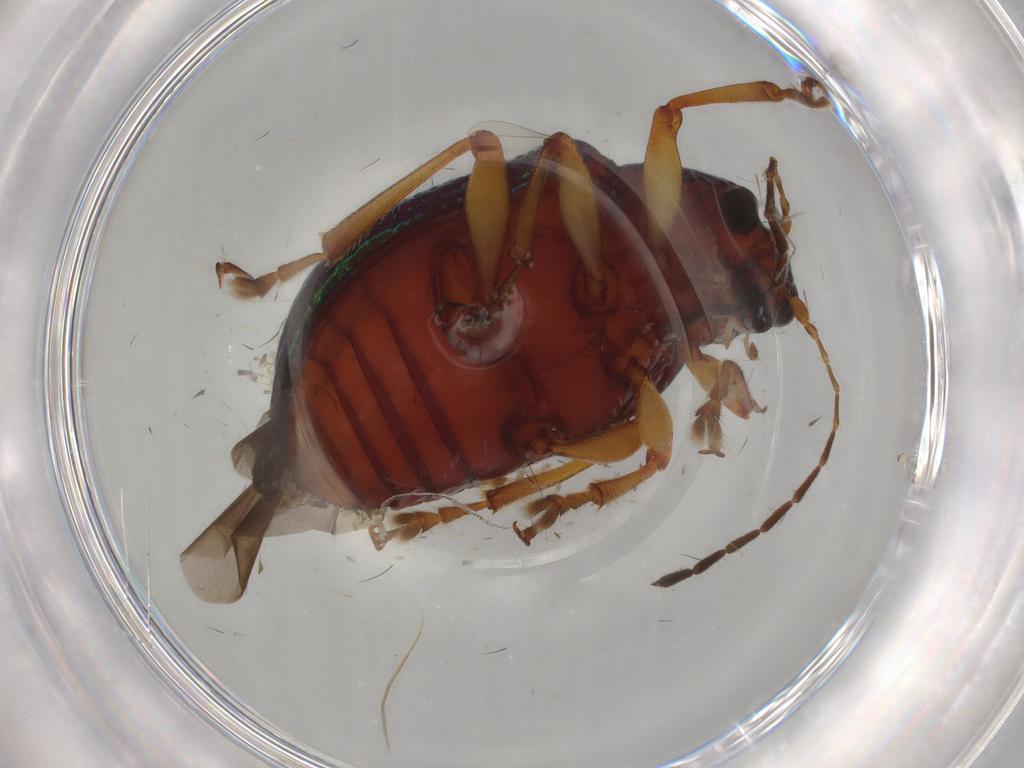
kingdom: Animalia
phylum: Arthropoda
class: Insecta
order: Coleoptera
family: Chrysomelidae
